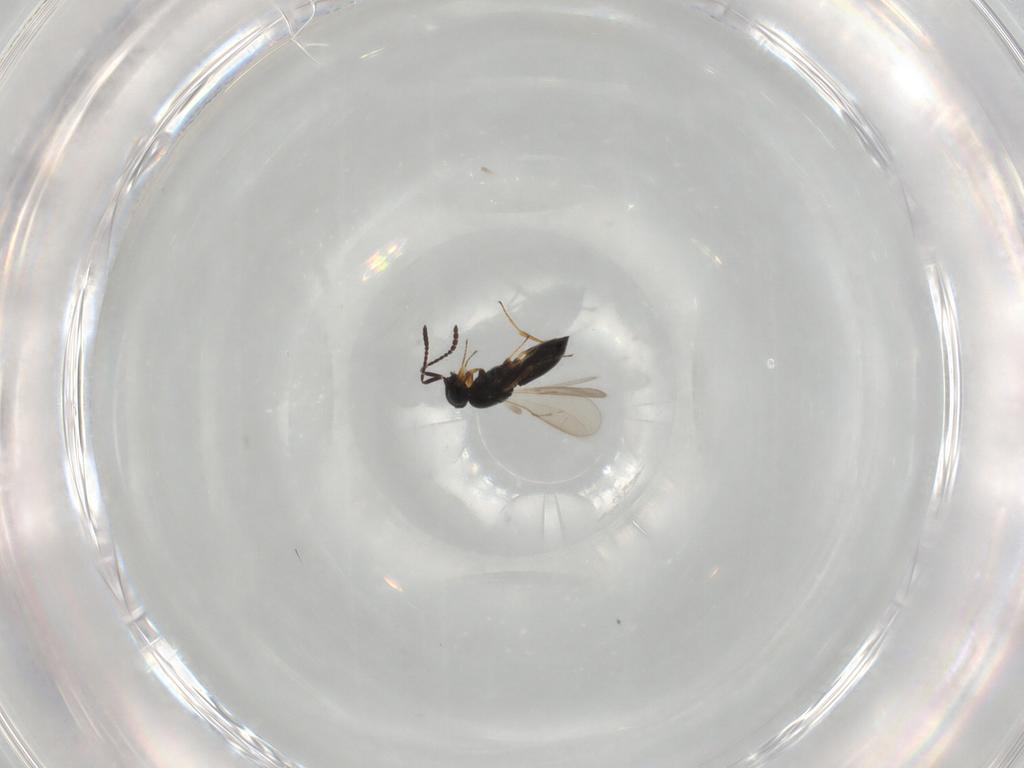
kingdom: Animalia
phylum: Arthropoda
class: Insecta
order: Hymenoptera
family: Scelionidae
